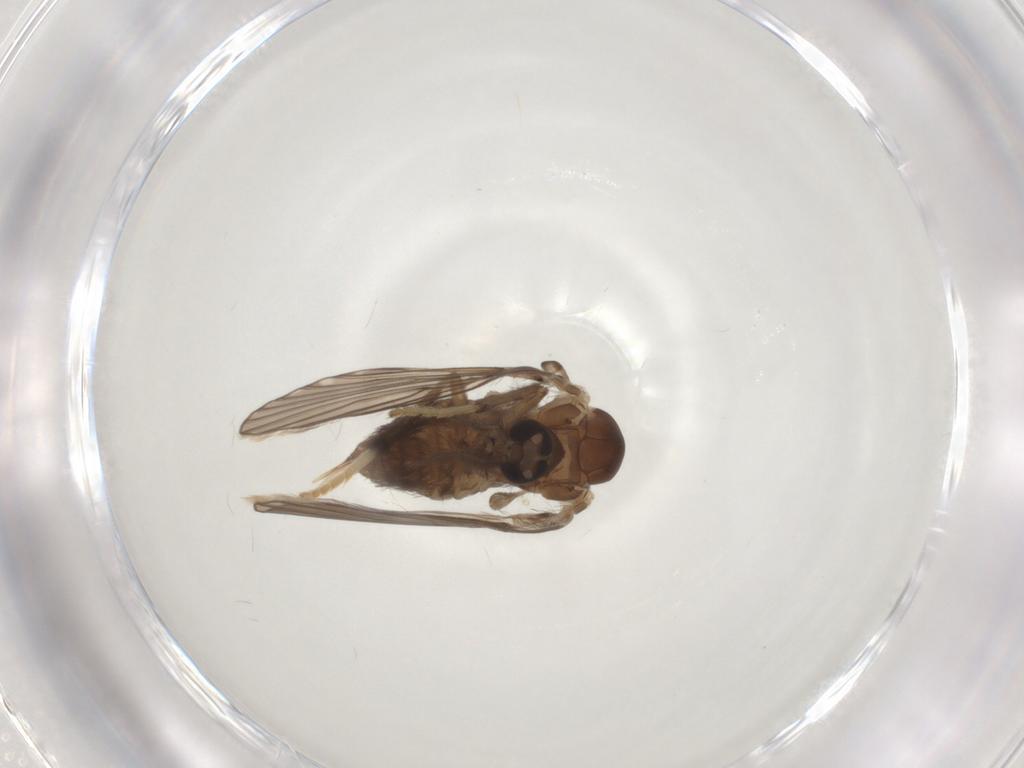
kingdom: Animalia
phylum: Arthropoda
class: Insecta
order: Diptera
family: Psychodidae
